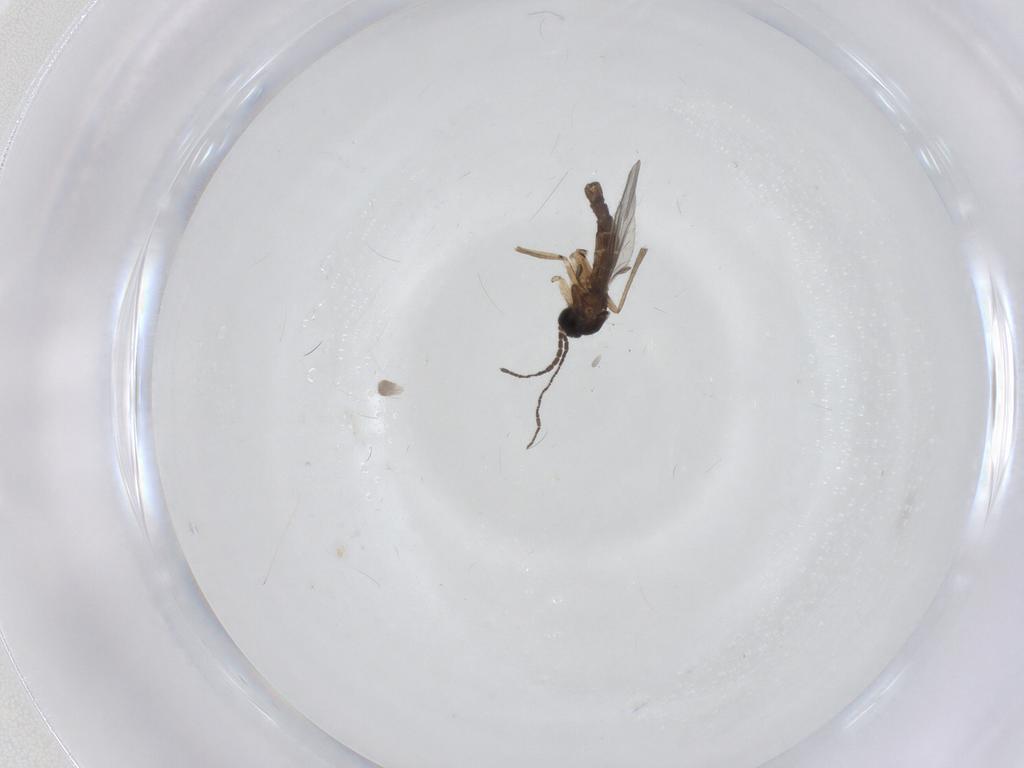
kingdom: Animalia
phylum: Arthropoda
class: Insecta
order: Diptera
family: Sciaridae
